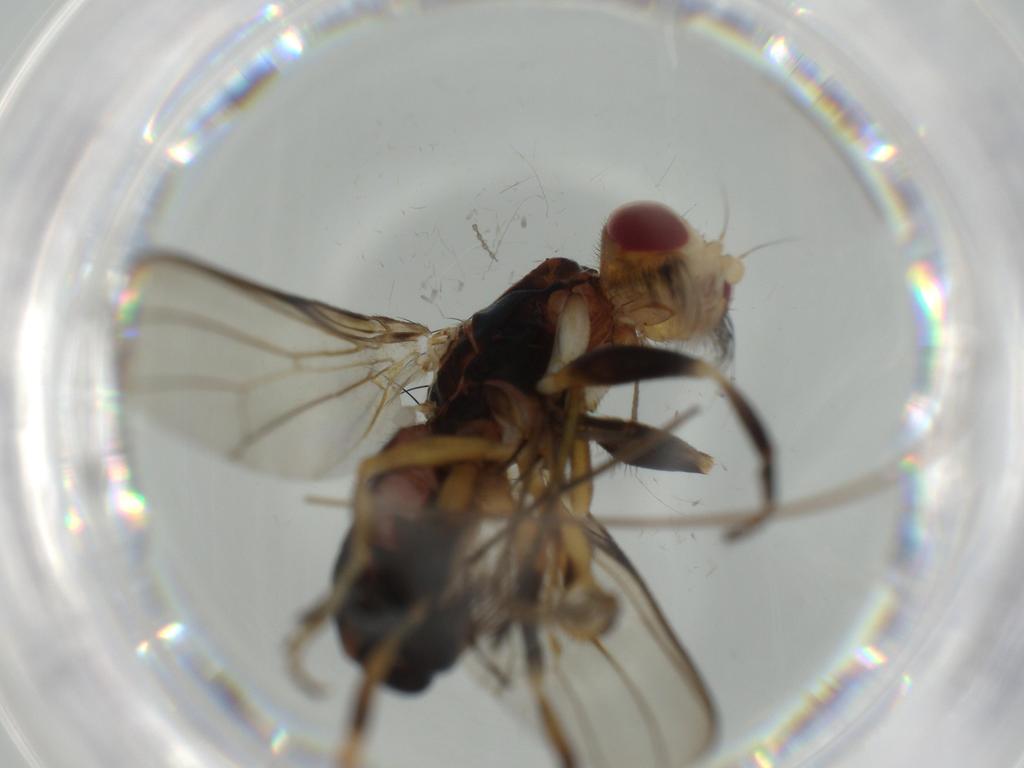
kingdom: Animalia
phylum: Arthropoda
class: Insecta
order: Diptera
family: Piophilidae
